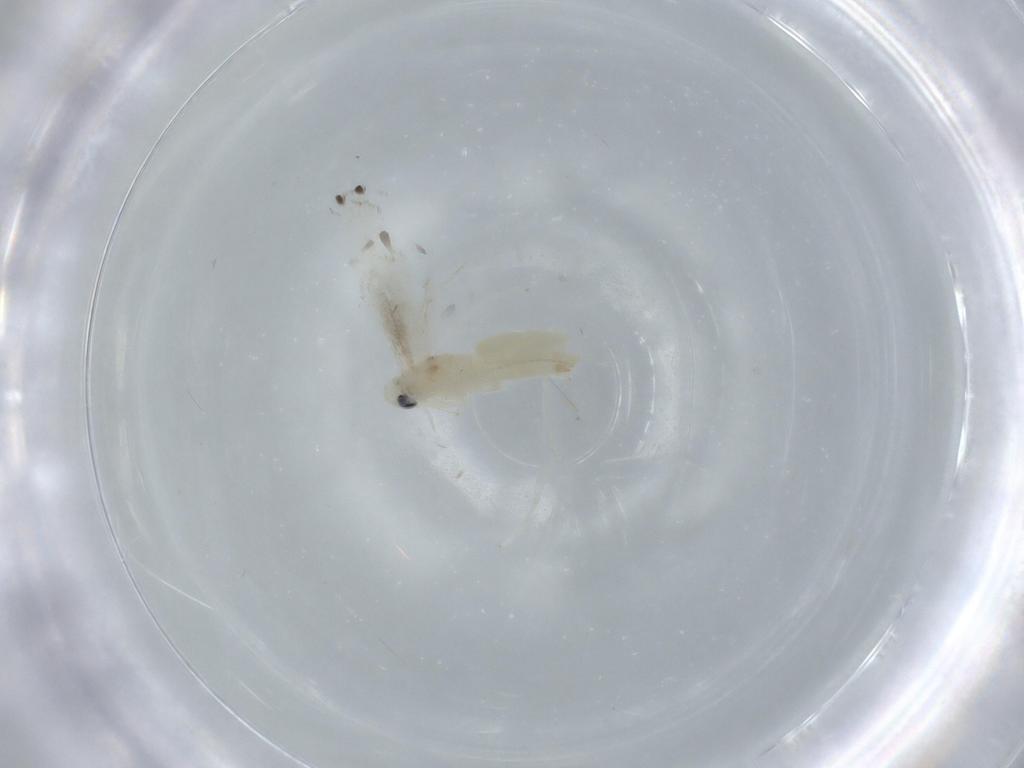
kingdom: Animalia
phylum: Arthropoda
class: Insecta
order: Lepidoptera
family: Gracillariidae
